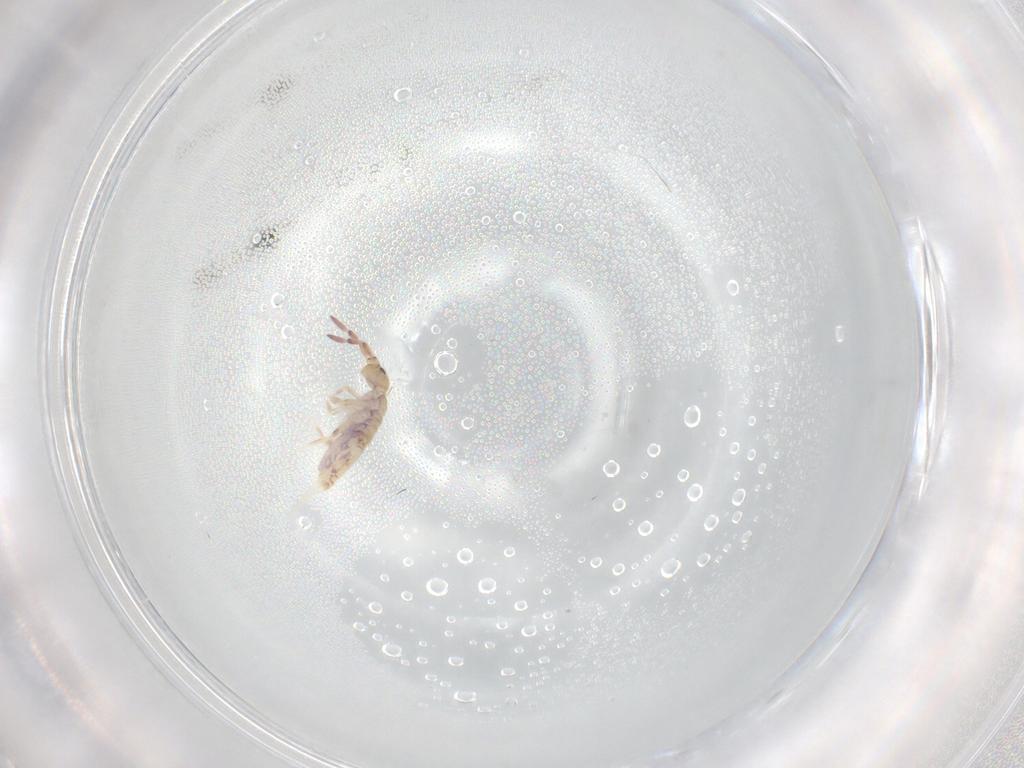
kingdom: Animalia
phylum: Arthropoda
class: Collembola
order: Entomobryomorpha
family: Entomobryidae
